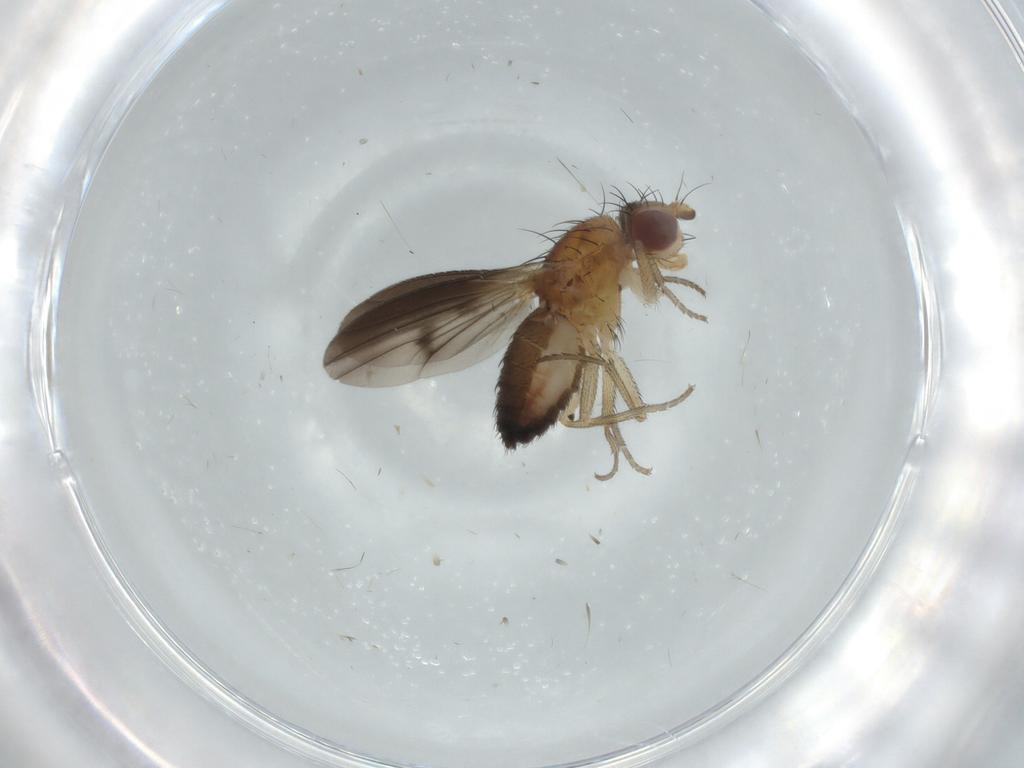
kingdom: Animalia
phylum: Arthropoda
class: Insecta
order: Diptera
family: Heleomyzidae
